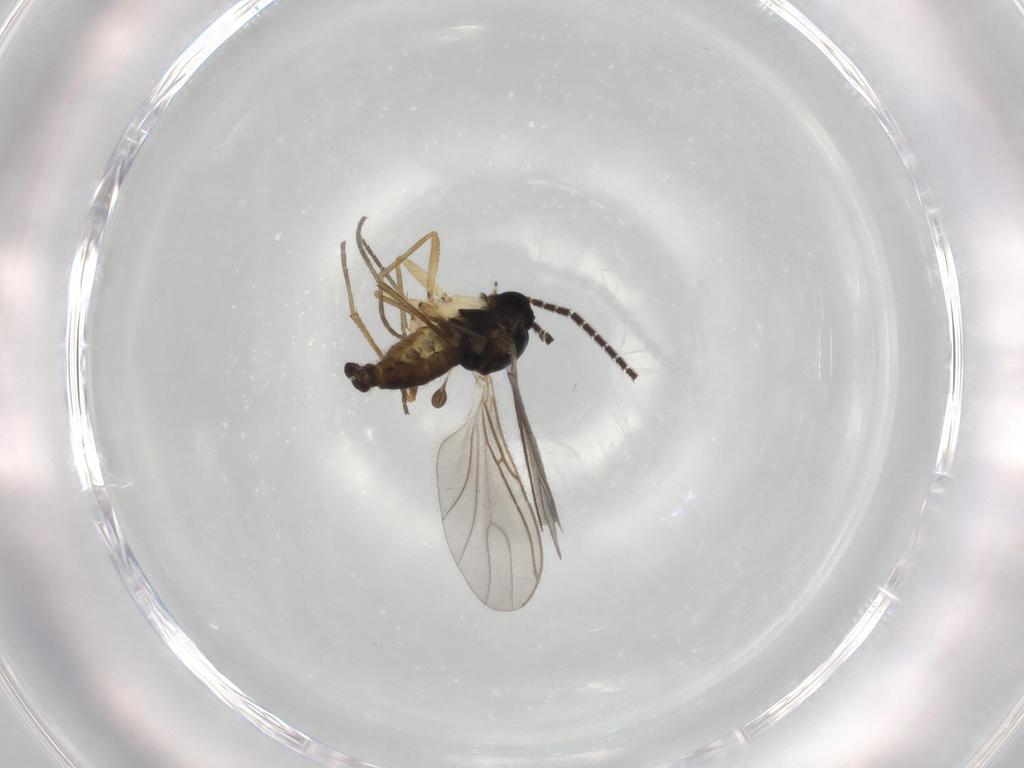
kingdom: Animalia
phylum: Arthropoda
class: Insecta
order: Diptera
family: Sciaridae
